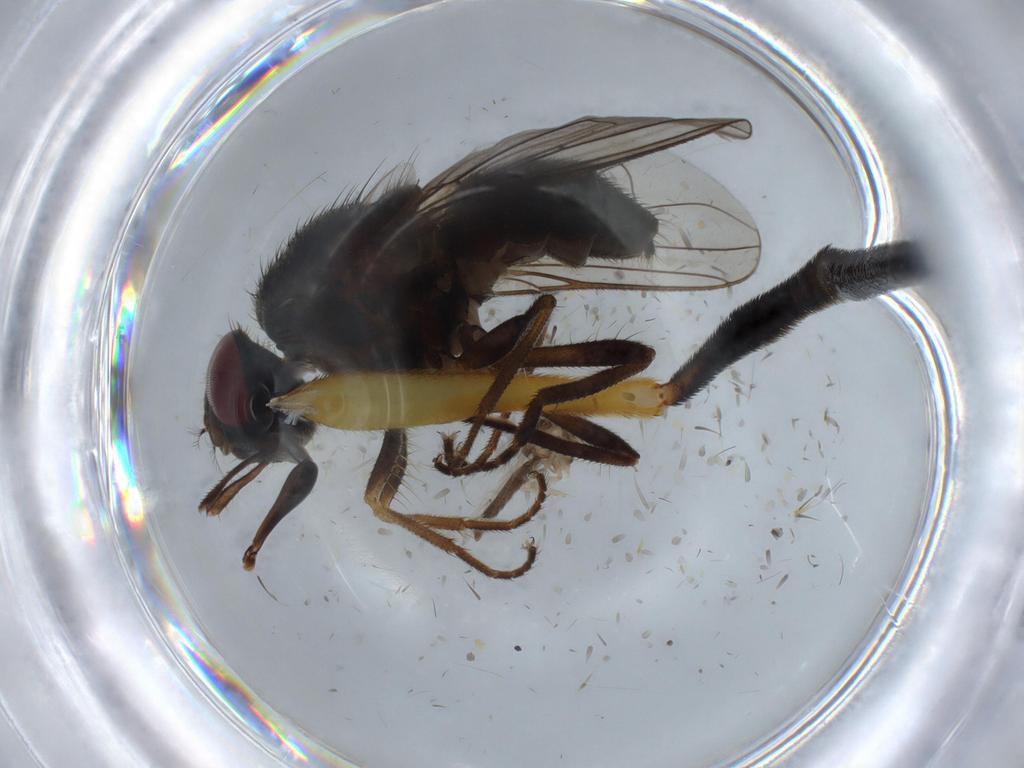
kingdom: Animalia
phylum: Arthropoda
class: Insecta
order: Diptera
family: Stratiomyidae
